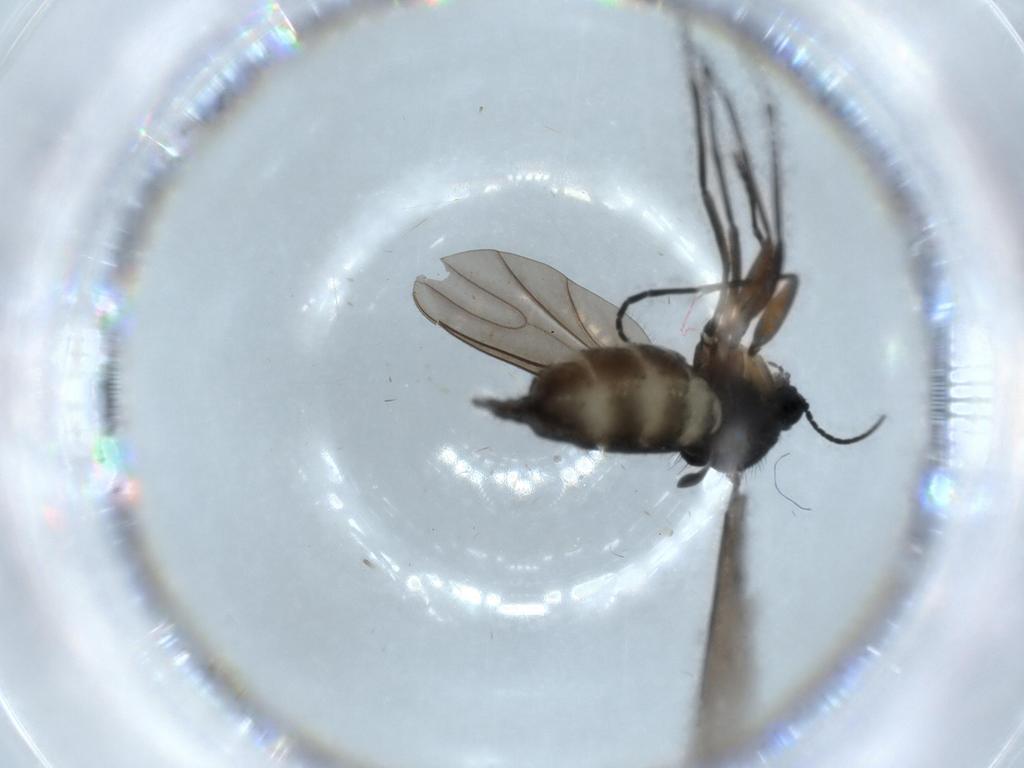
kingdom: Animalia
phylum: Arthropoda
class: Insecta
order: Diptera
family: Sciaridae
